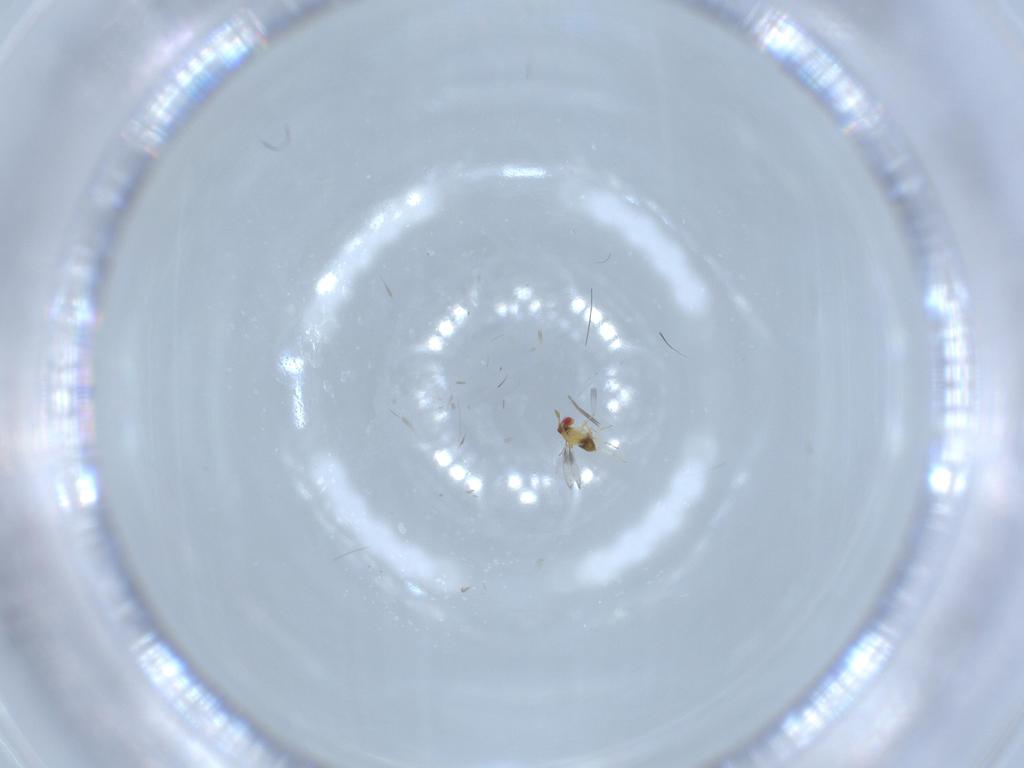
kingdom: Animalia
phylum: Arthropoda
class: Insecta
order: Hymenoptera
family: Trichogrammatidae
